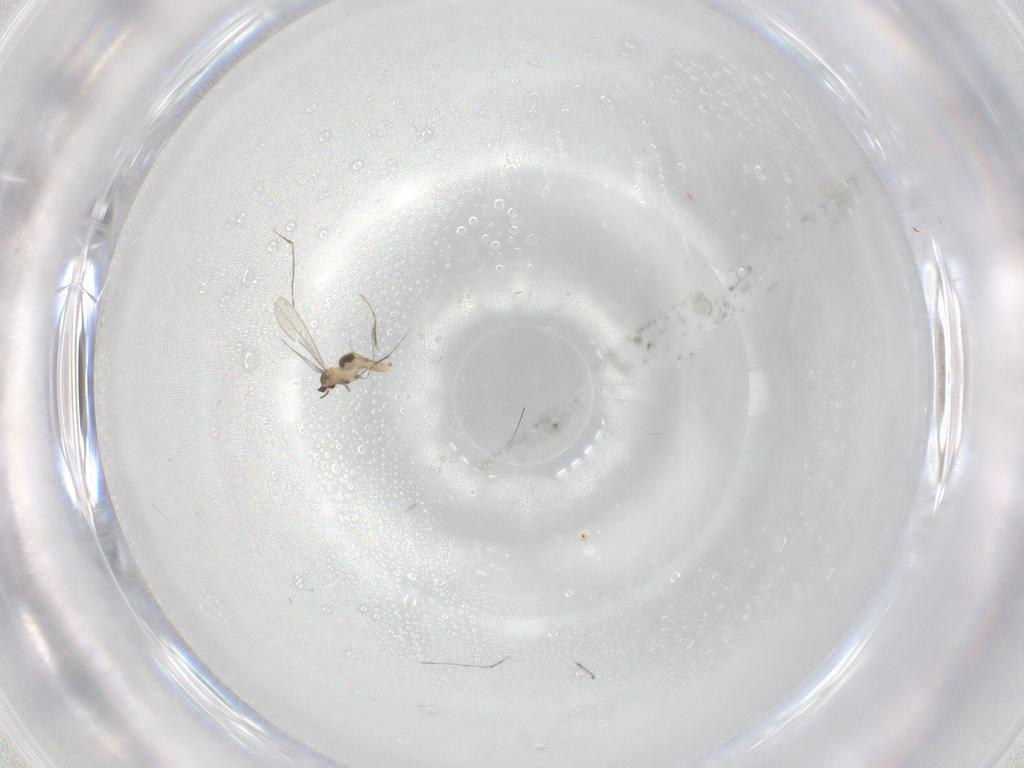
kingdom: Animalia
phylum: Arthropoda
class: Insecta
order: Diptera
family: Cecidomyiidae
